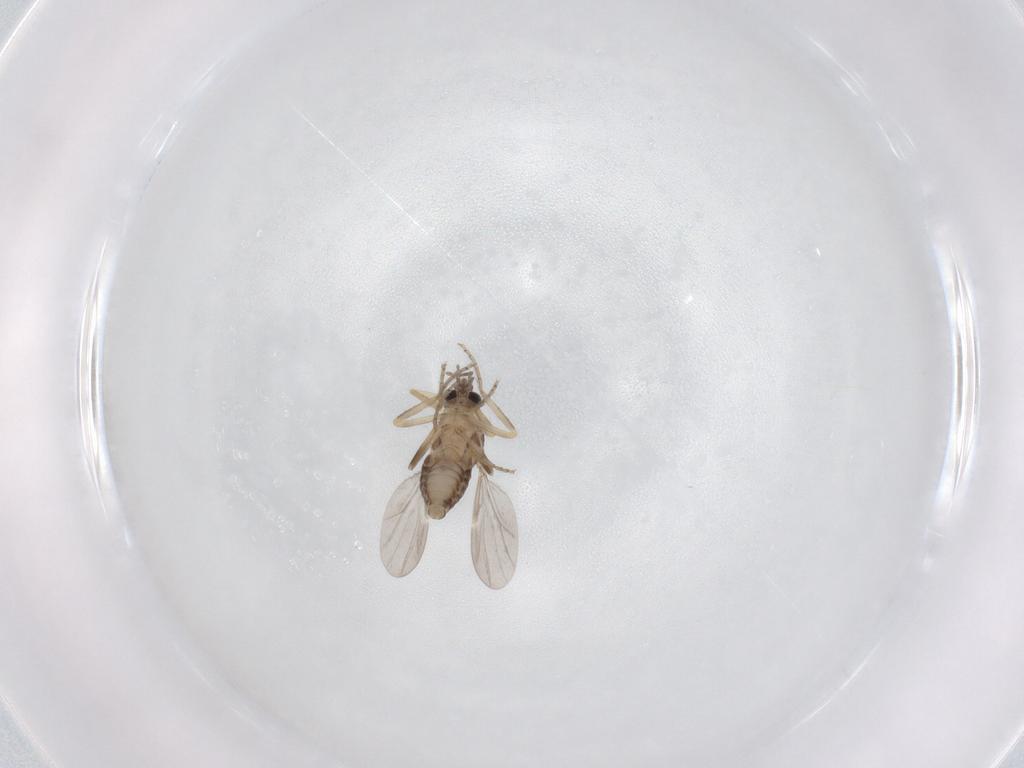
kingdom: Animalia
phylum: Arthropoda
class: Insecta
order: Diptera
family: Ceratopogonidae
